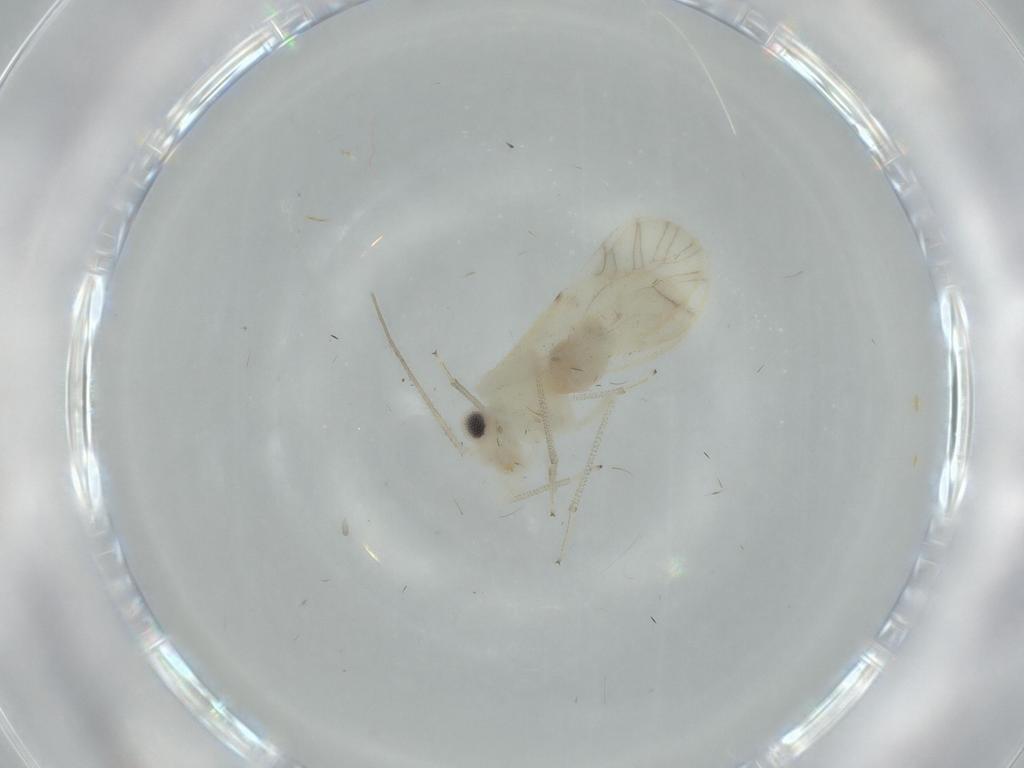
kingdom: Animalia
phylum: Arthropoda
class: Insecta
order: Psocodea
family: Caeciliusidae
